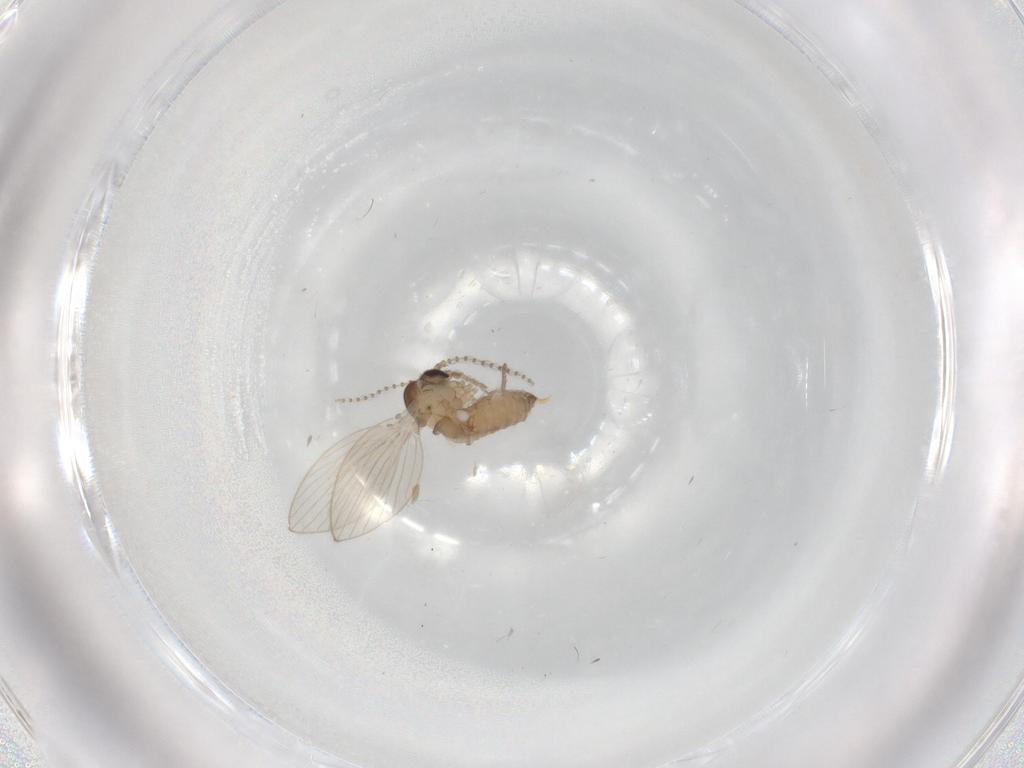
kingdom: Animalia
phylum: Arthropoda
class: Insecta
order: Diptera
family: Psychodidae
